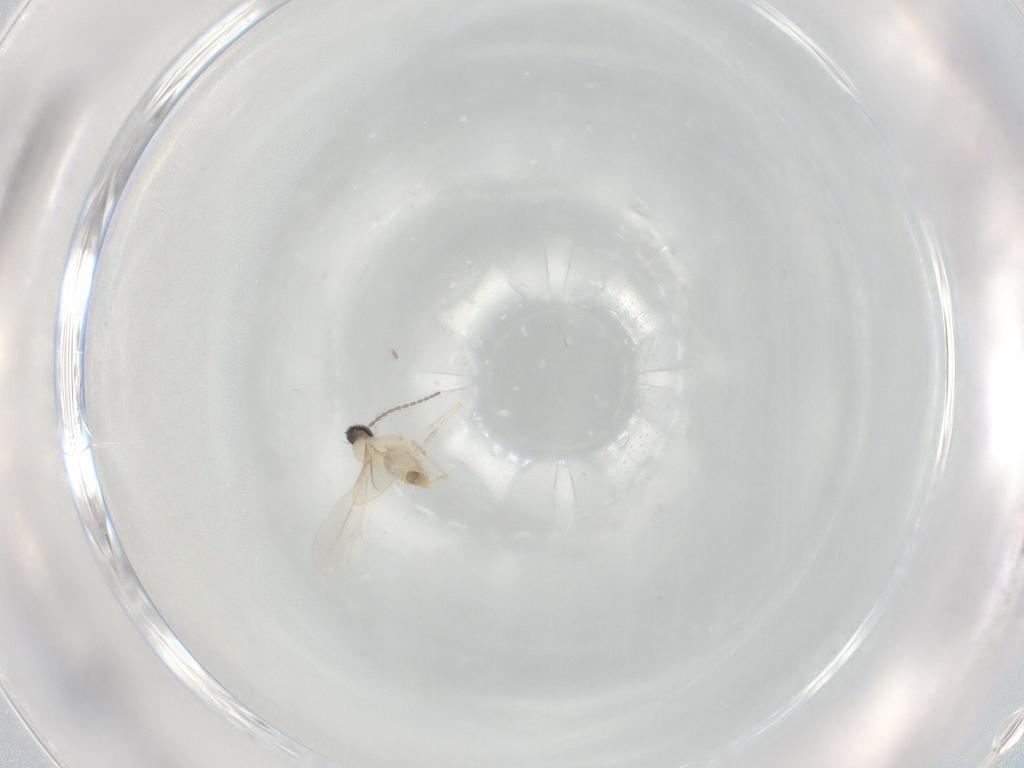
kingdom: Animalia
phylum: Arthropoda
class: Insecta
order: Diptera
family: Cecidomyiidae
